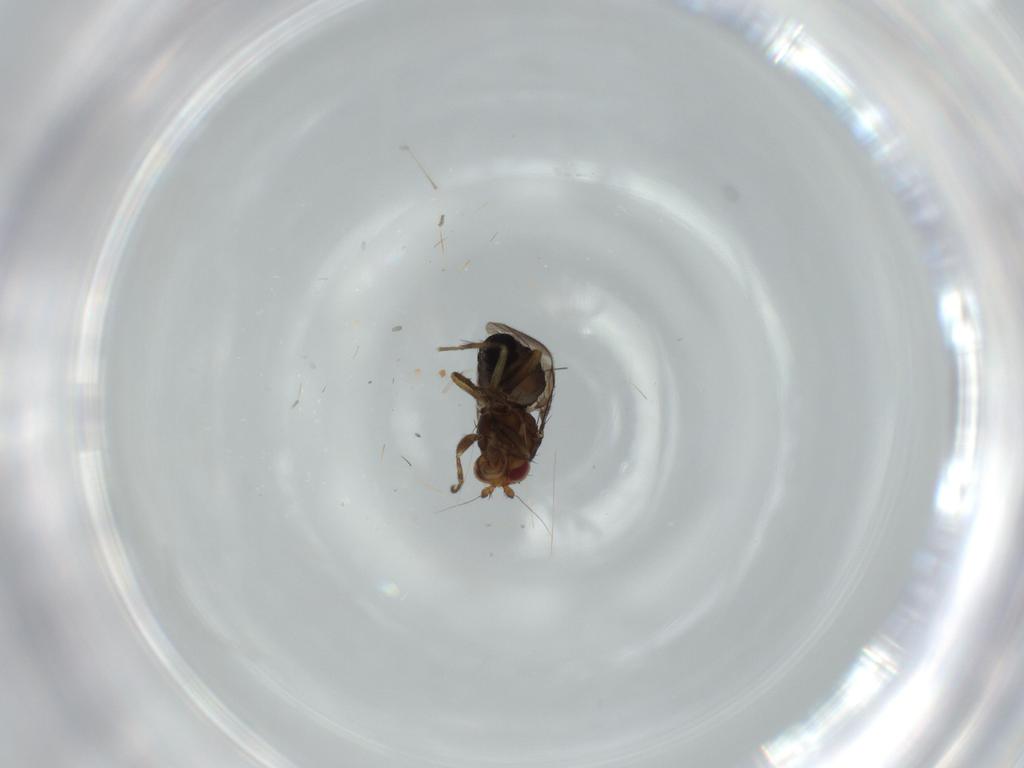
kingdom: Animalia
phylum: Arthropoda
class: Insecta
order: Diptera
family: Sphaeroceridae
